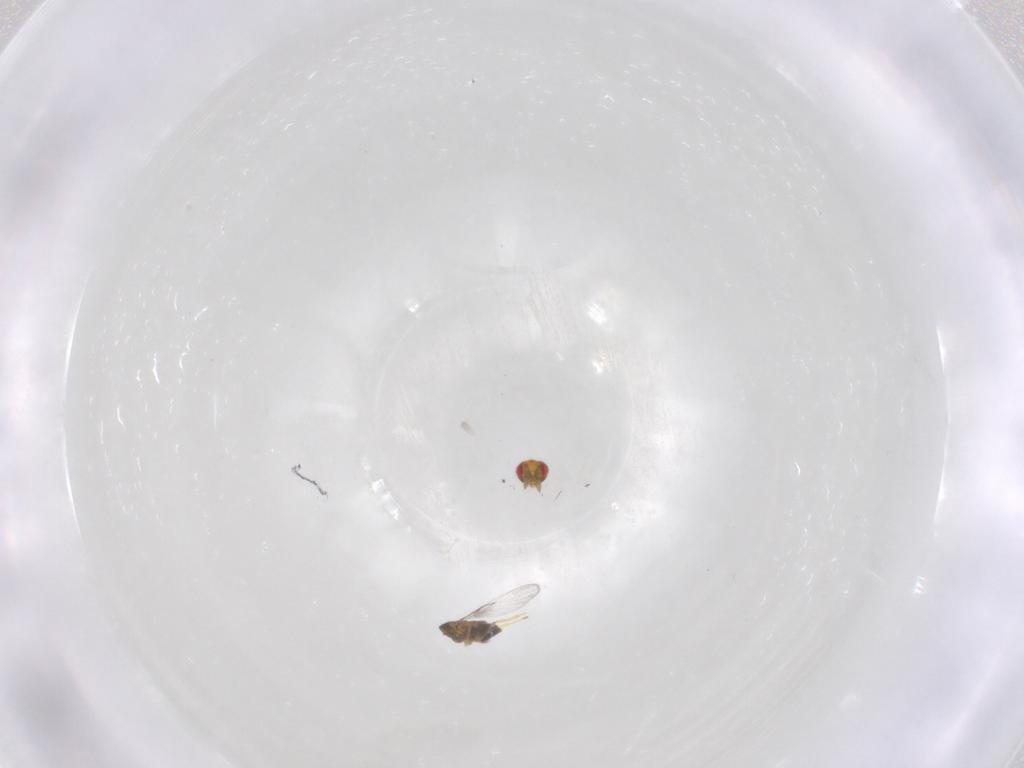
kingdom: Animalia
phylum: Arthropoda
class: Insecta
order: Hymenoptera
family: Trichogrammatidae
